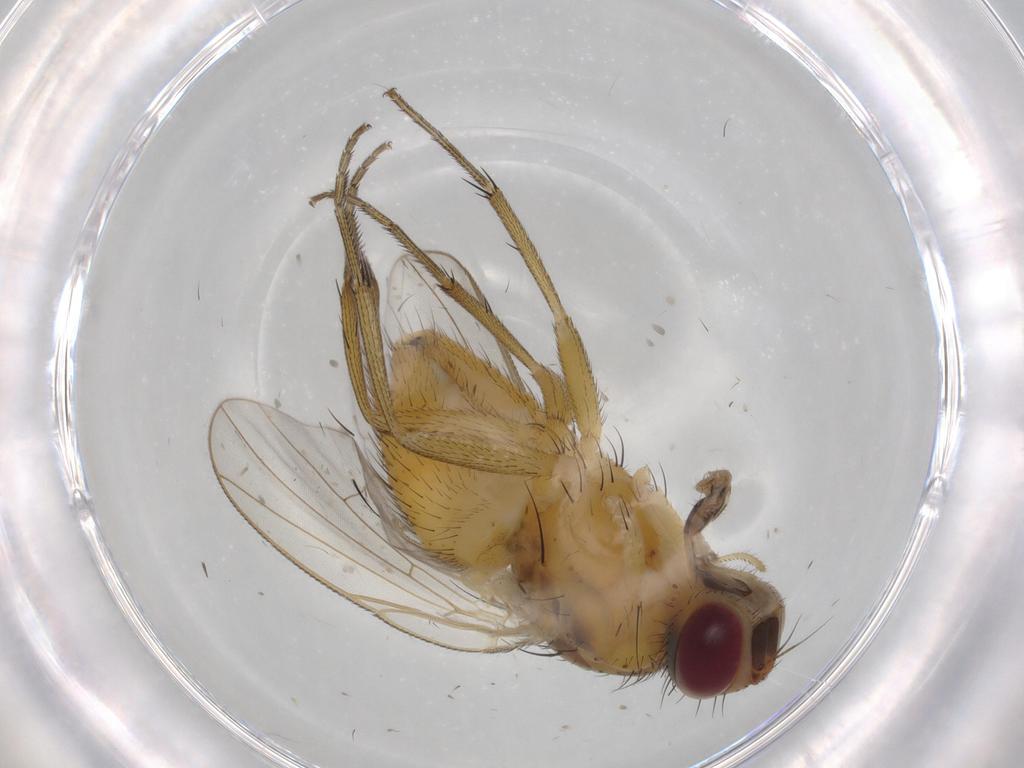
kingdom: Animalia
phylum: Arthropoda
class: Insecta
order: Diptera
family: Muscidae
